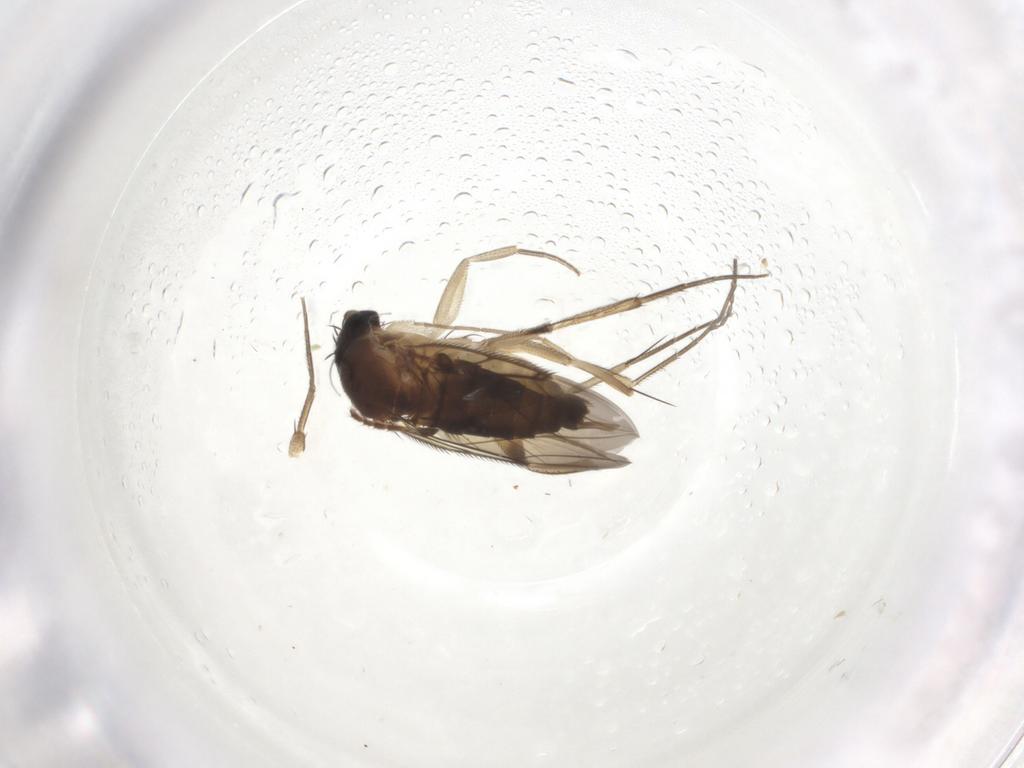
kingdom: Animalia
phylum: Arthropoda
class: Insecta
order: Diptera
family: Phoridae
